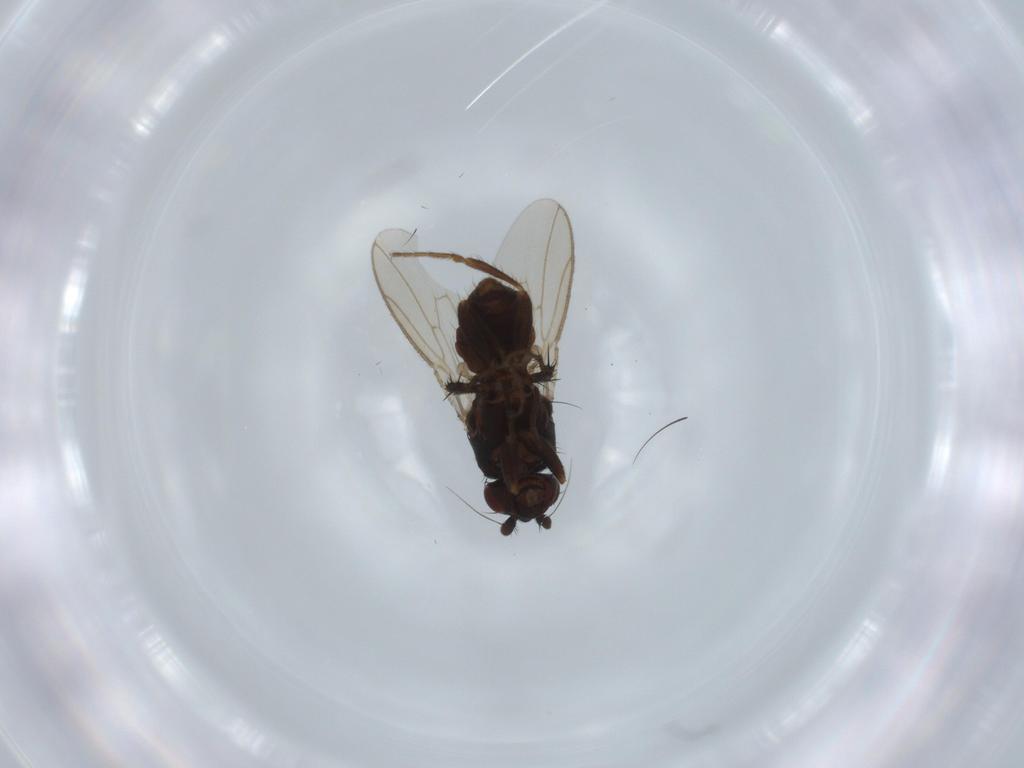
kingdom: Animalia
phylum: Arthropoda
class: Insecta
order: Diptera
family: Sphaeroceridae
